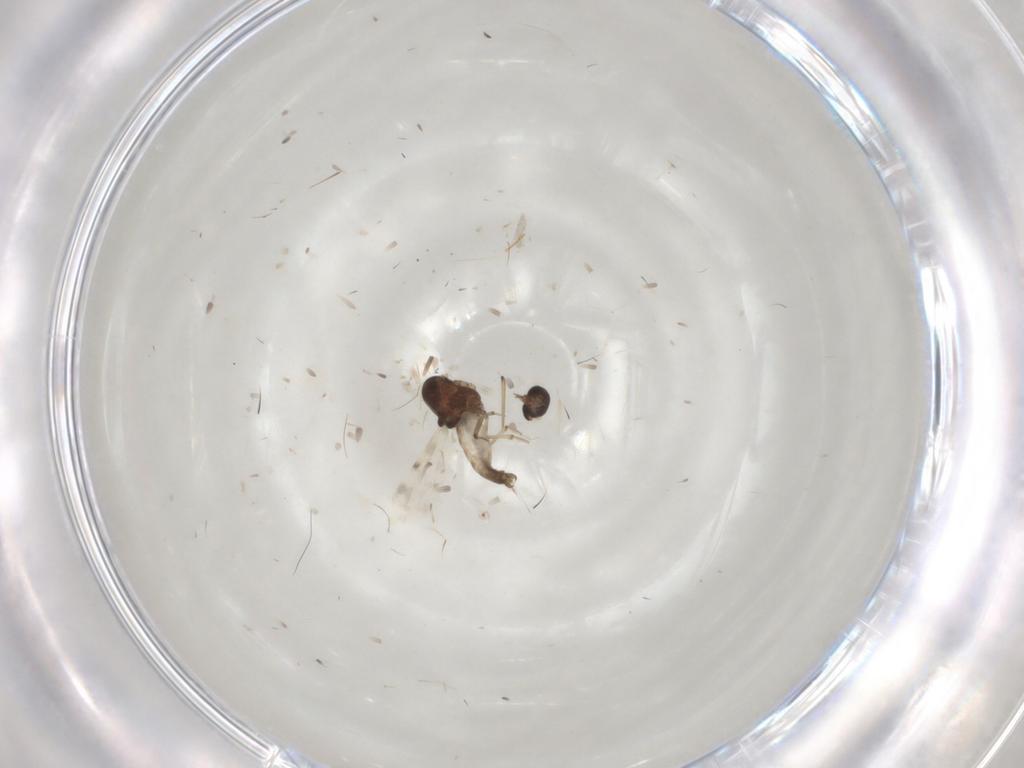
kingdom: Animalia
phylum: Arthropoda
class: Insecta
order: Diptera
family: Glossinidae
